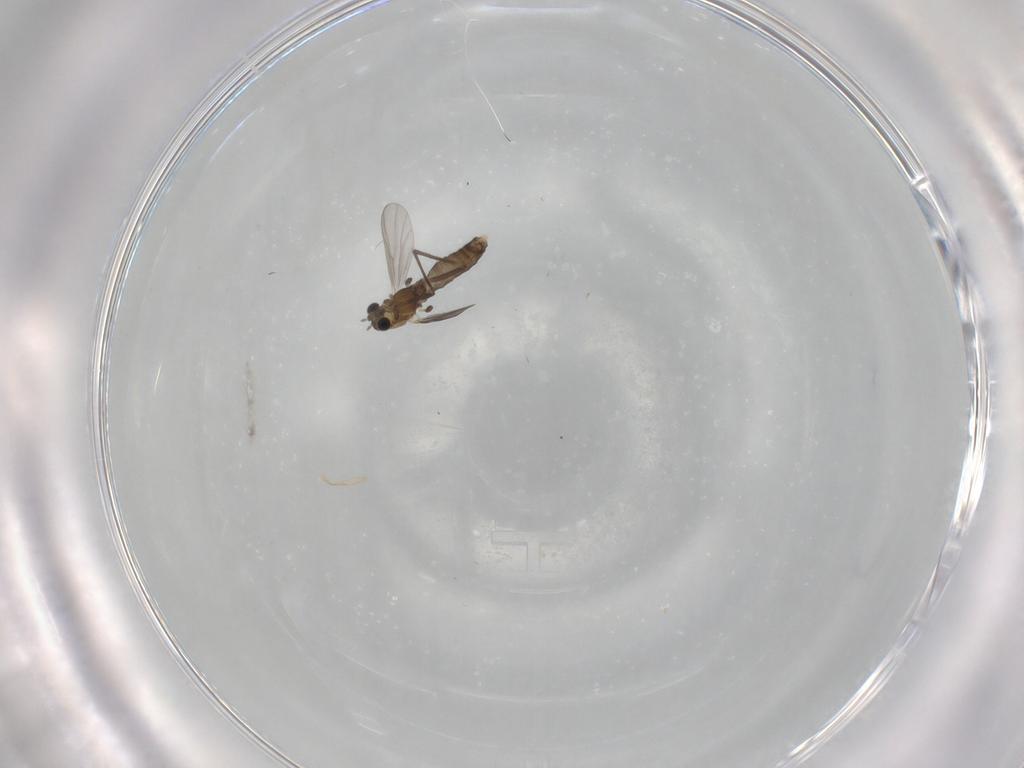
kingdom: Animalia
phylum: Arthropoda
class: Insecta
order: Diptera
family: Chironomidae
